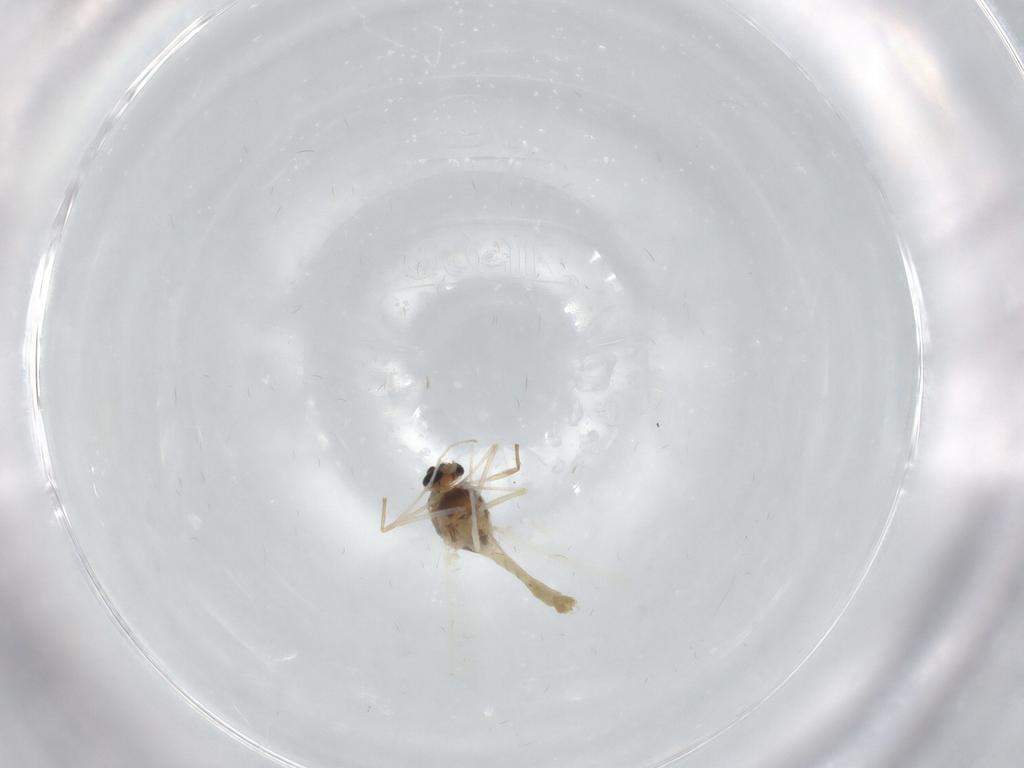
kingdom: Animalia
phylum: Arthropoda
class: Insecta
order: Diptera
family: Chironomidae
